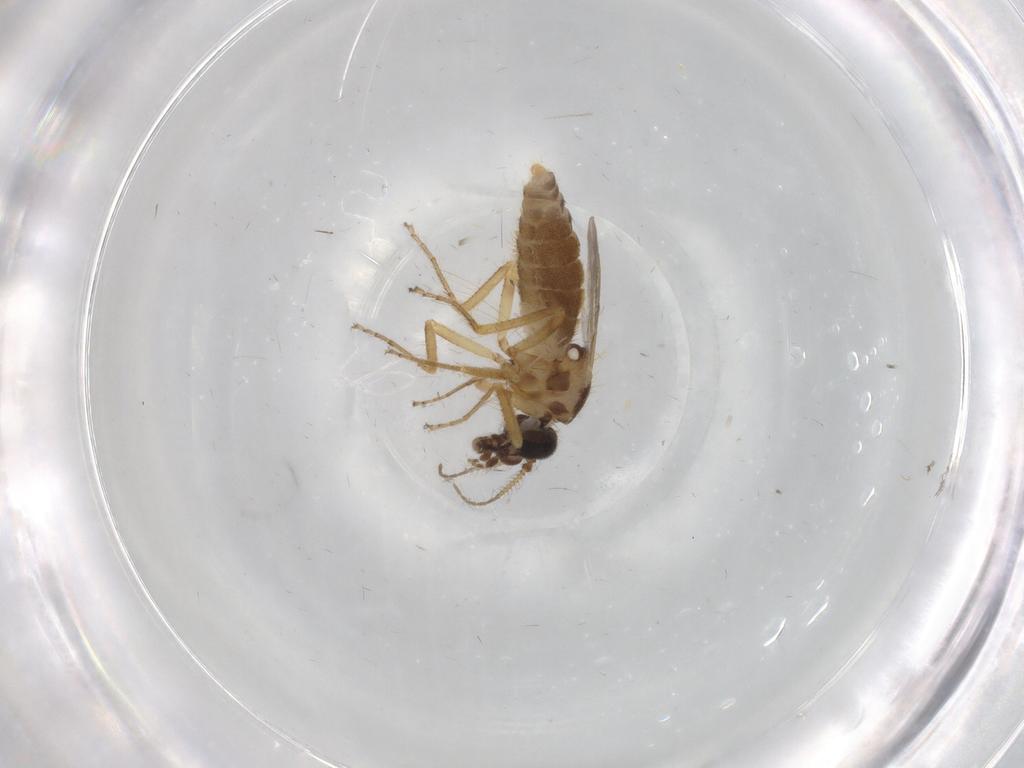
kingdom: Animalia
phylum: Arthropoda
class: Insecta
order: Diptera
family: Ceratopogonidae
